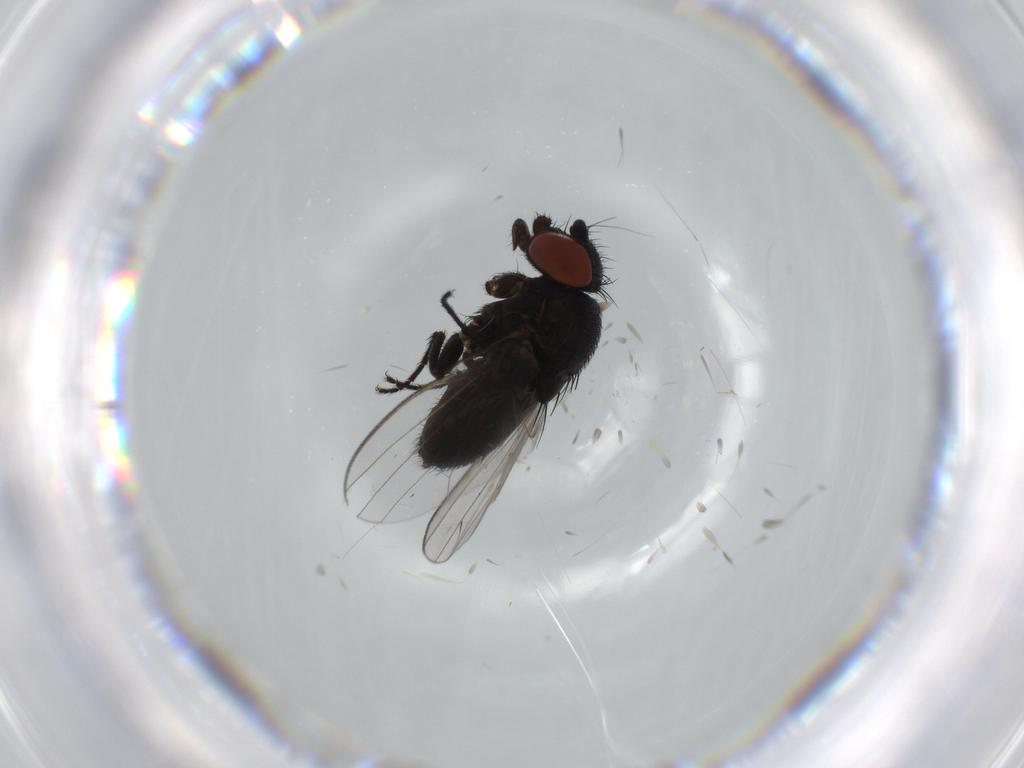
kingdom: Animalia
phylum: Arthropoda
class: Insecta
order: Diptera
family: Milichiidae
